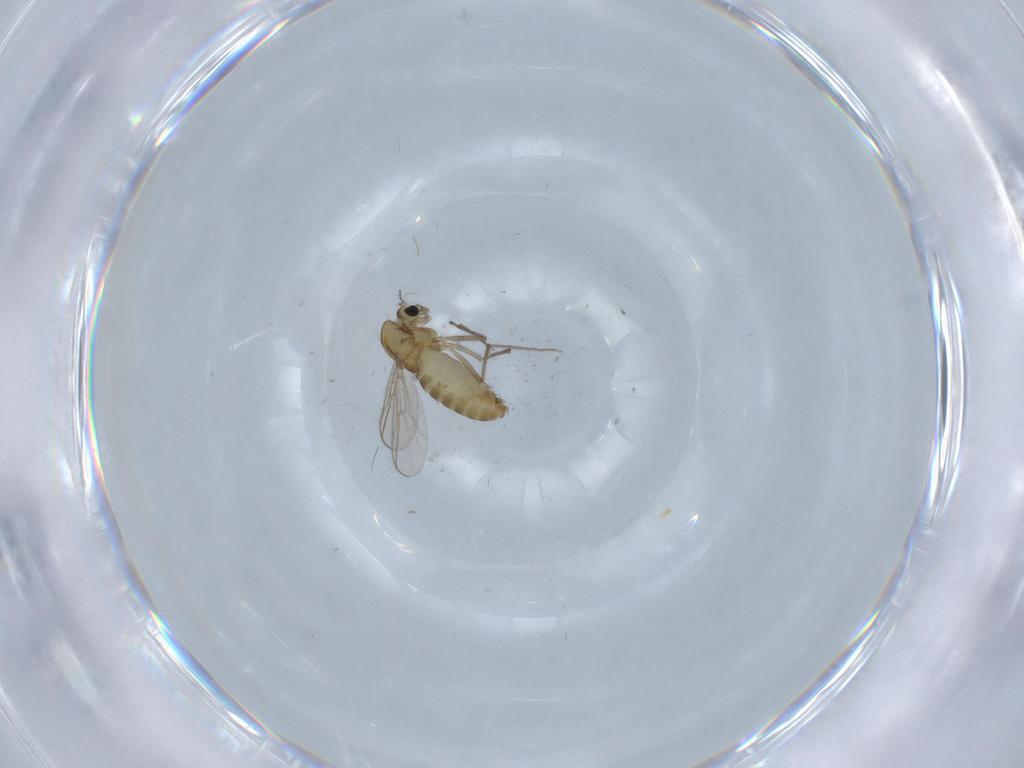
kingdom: Animalia
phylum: Arthropoda
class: Insecta
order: Diptera
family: Chironomidae
